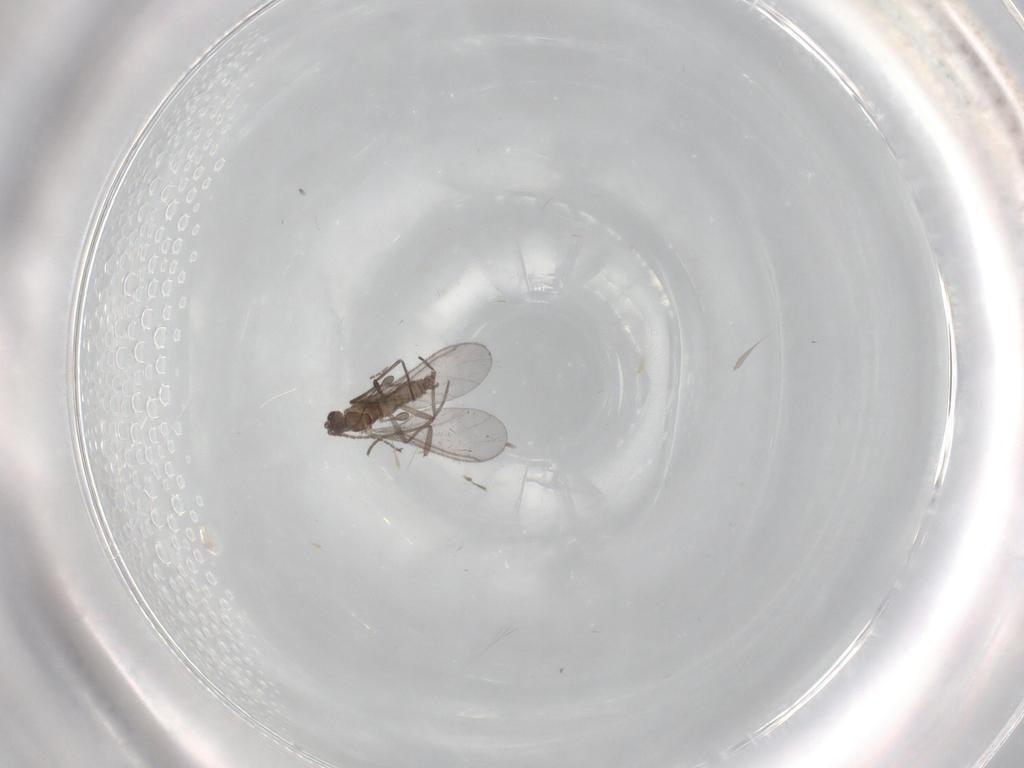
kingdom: Animalia
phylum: Arthropoda
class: Insecta
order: Diptera
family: Sciaridae
